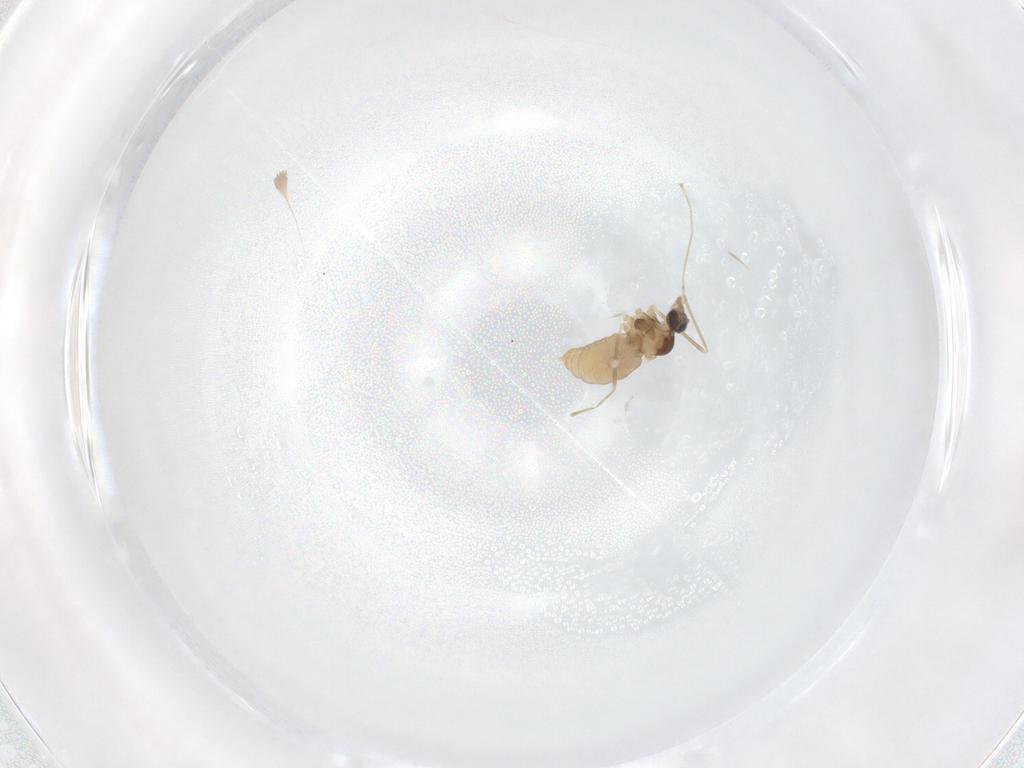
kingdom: Animalia
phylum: Arthropoda
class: Insecta
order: Diptera
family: Cecidomyiidae
